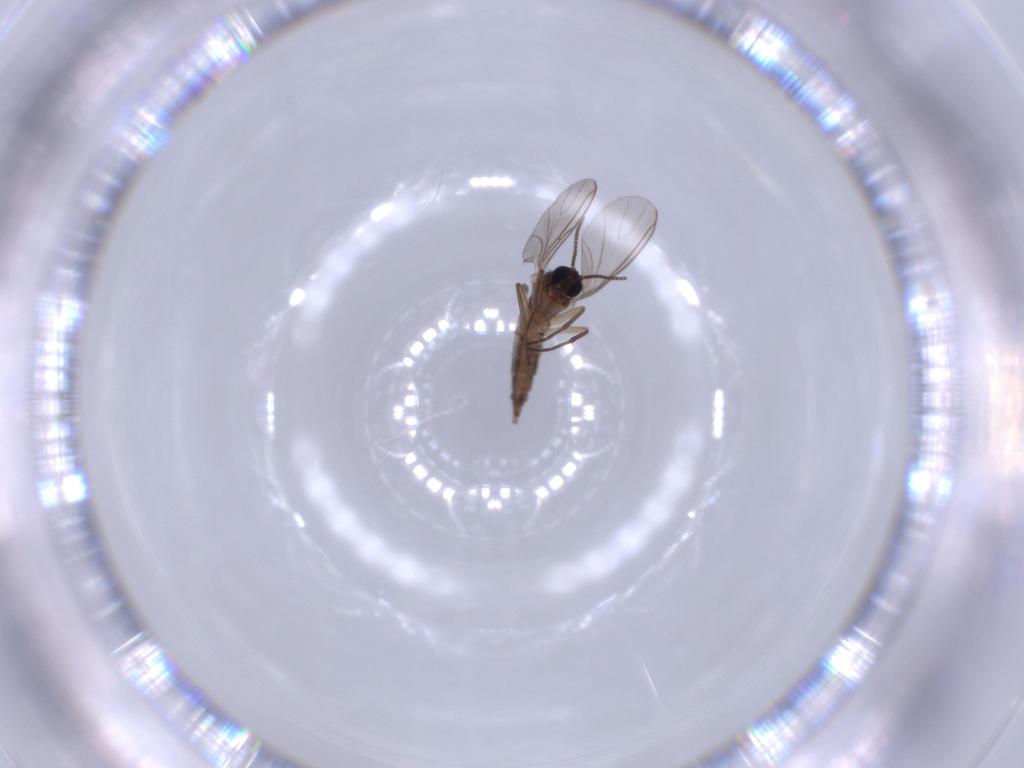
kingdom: Animalia
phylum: Arthropoda
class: Insecta
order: Diptera
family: Sciaridae
